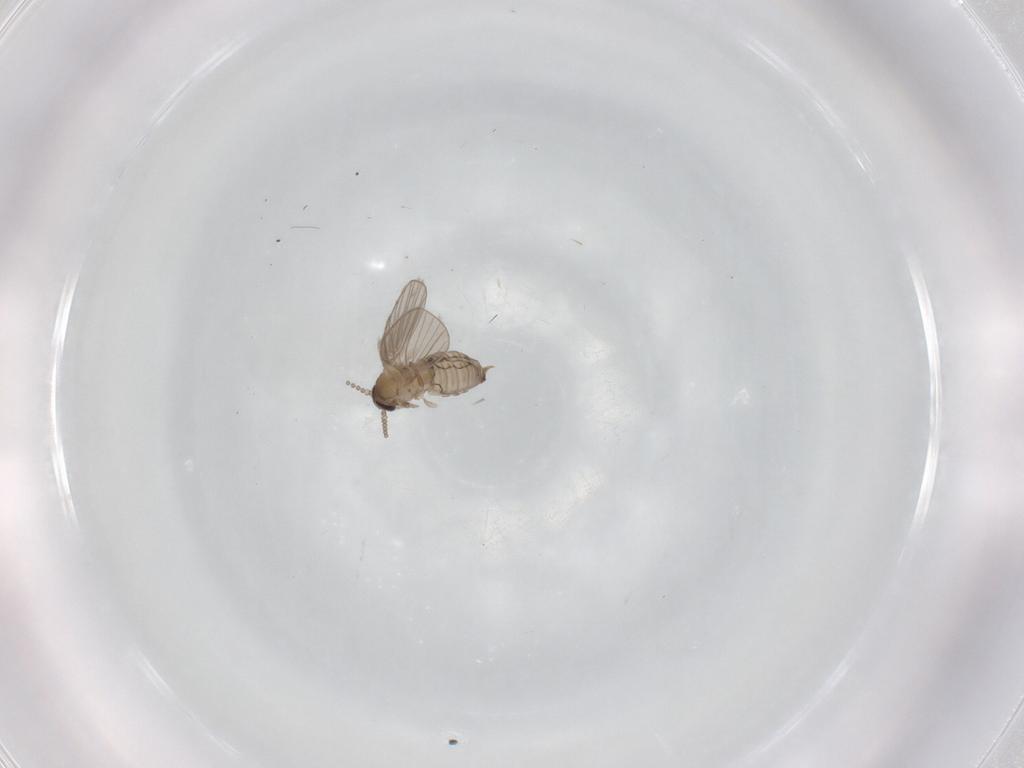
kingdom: Animalia
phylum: Arthropoda
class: Insecta
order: Diptera
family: Psychodidae
